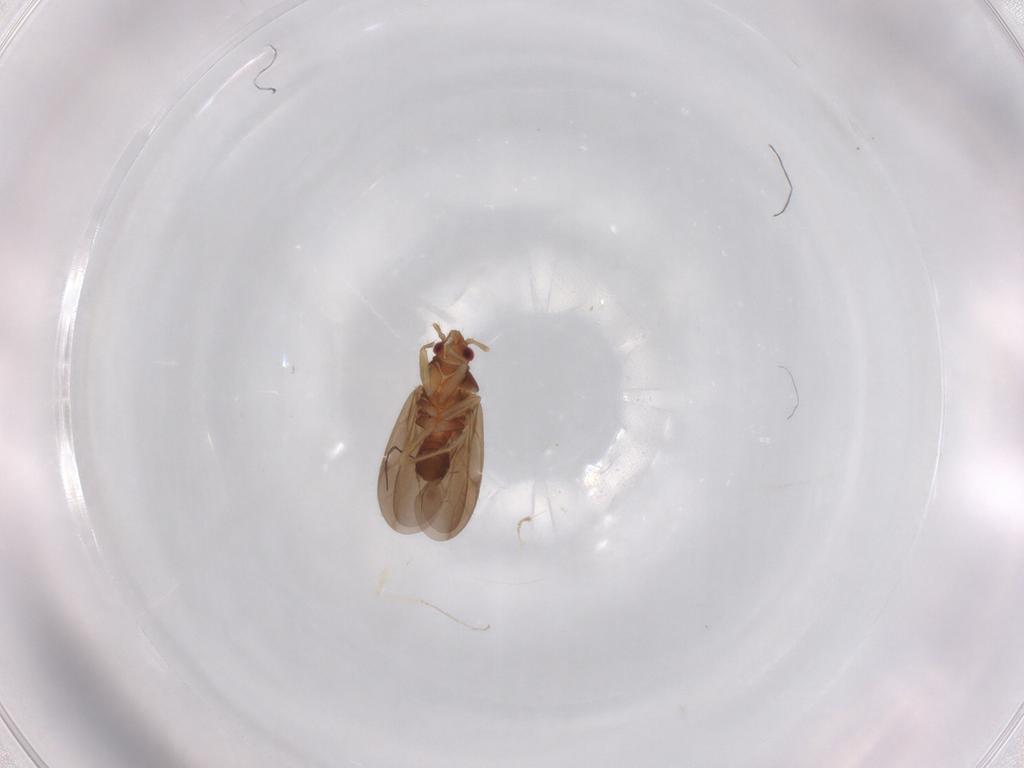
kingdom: Animalia
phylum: Arthropoda
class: Insecta
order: Hemiptera
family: Ceratocombidae
